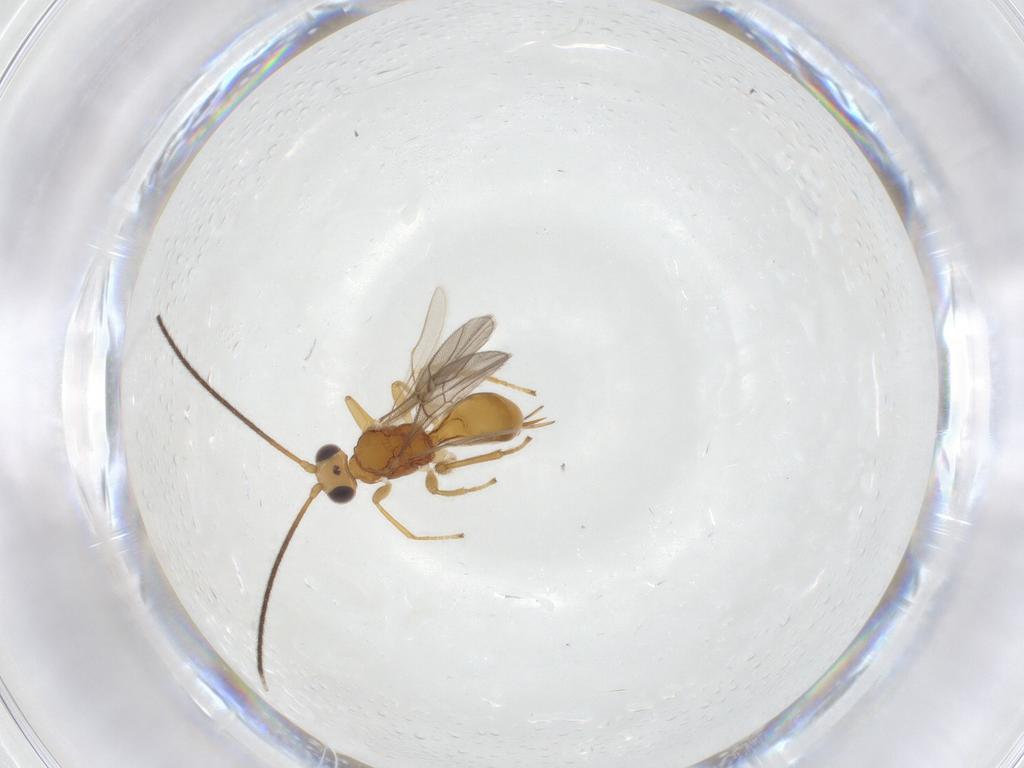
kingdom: Animalia
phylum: Arthropoda
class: Insecta
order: Hymenoptera
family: Braconidae
